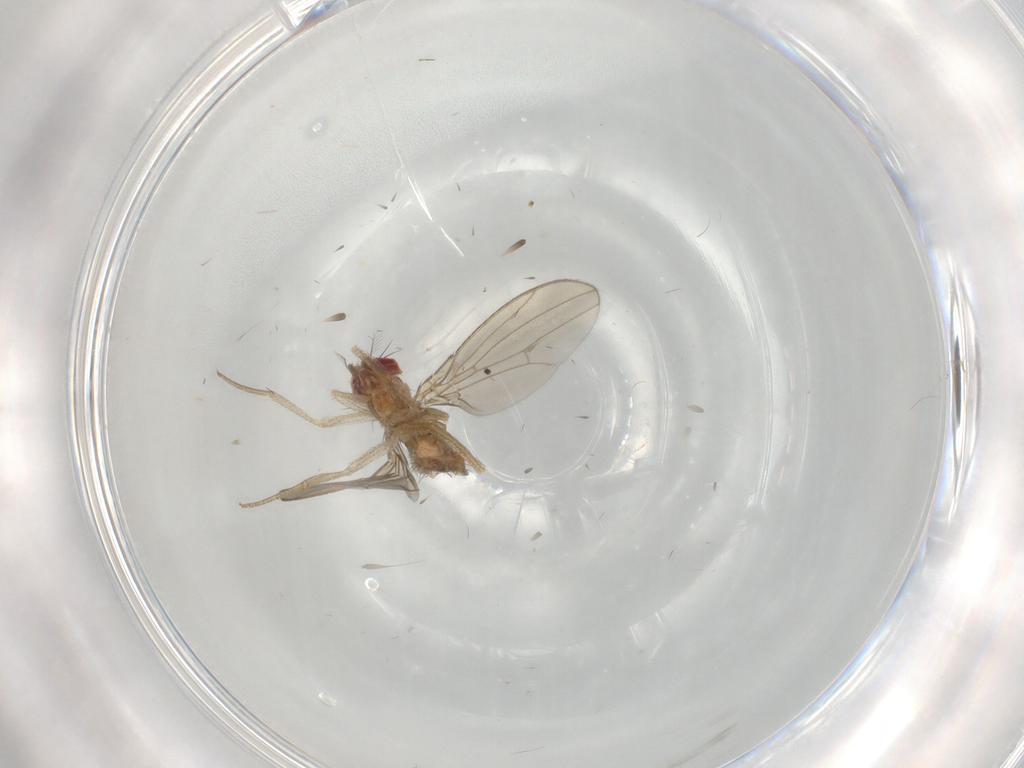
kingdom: Animalia
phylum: Arthropoda
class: Insecta
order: Diptera
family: Phoridae
